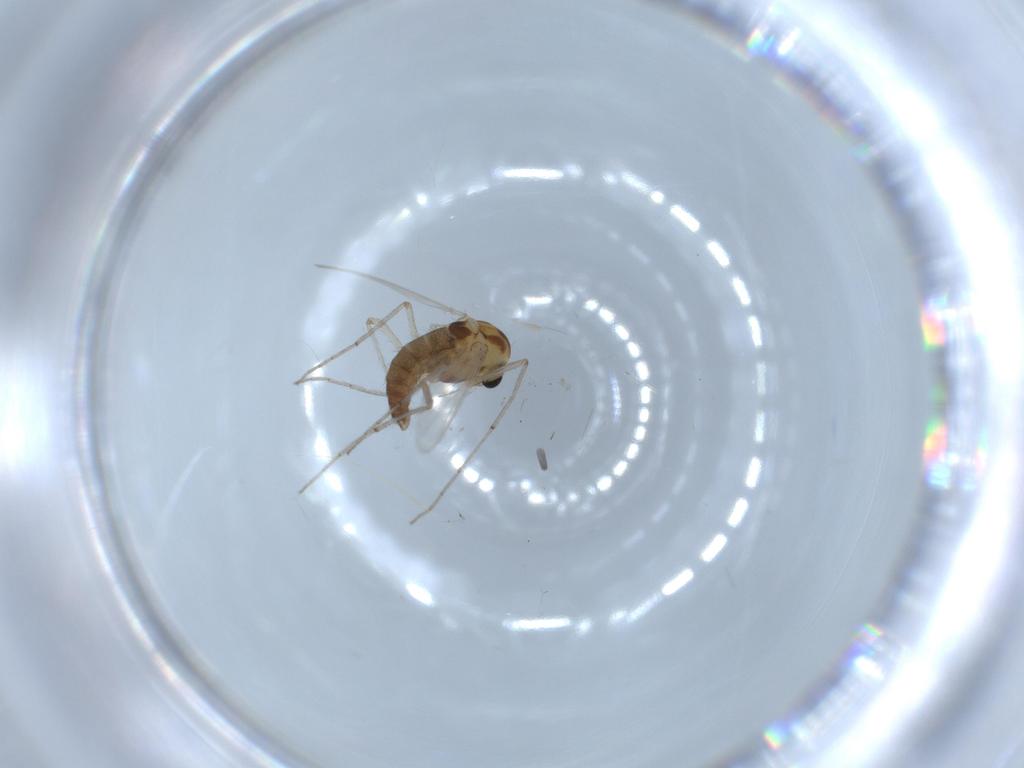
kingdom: Animalia
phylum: Arthropoda
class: Insecta
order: Diptera
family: Chironomidae
